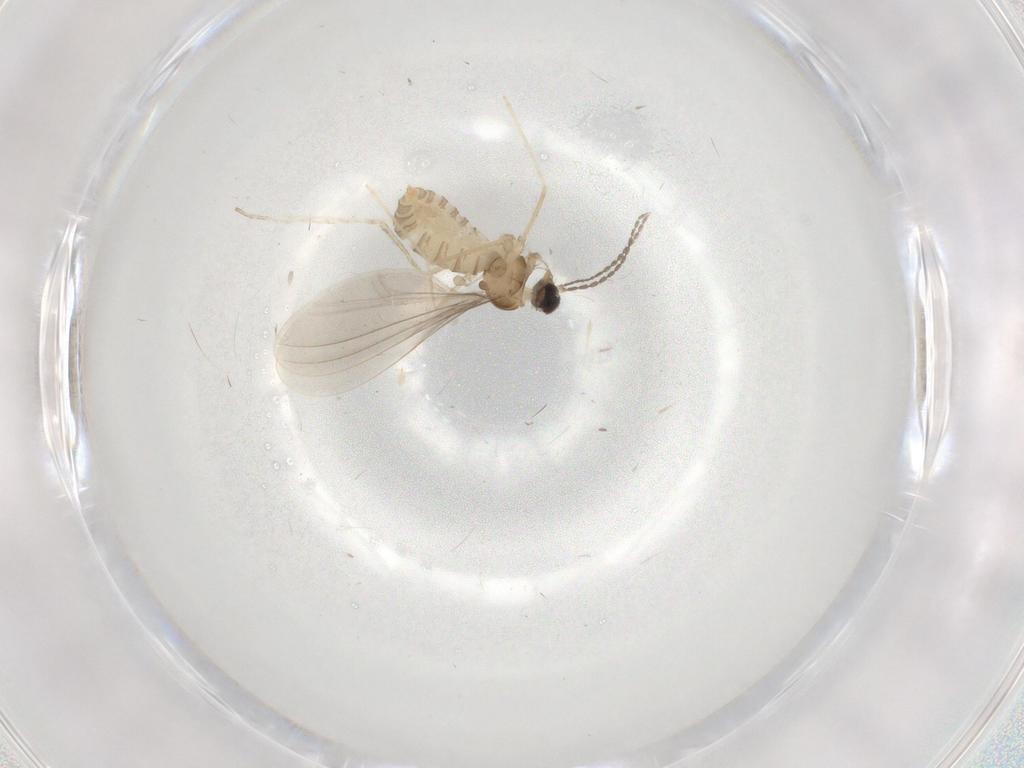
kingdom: Animalia
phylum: Arthropoda
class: Insecta
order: Diptera
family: Cecidomyiidae
